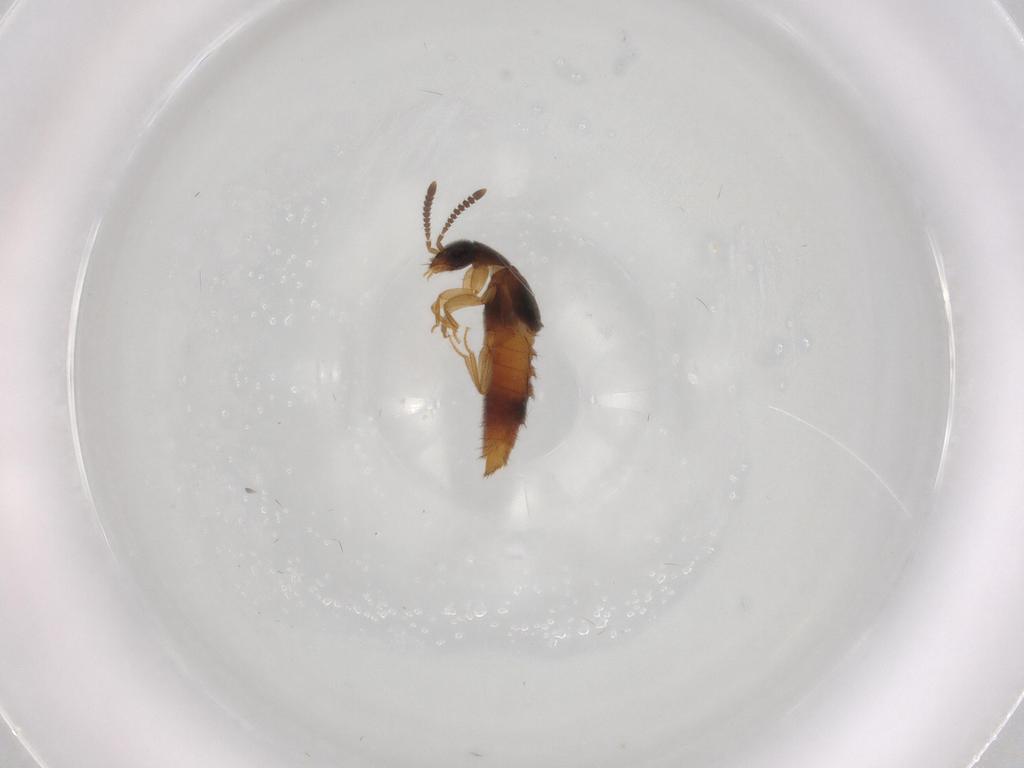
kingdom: Animalia
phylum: Arthropoda
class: Insecta
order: Coleoptera
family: Staphylinidae
